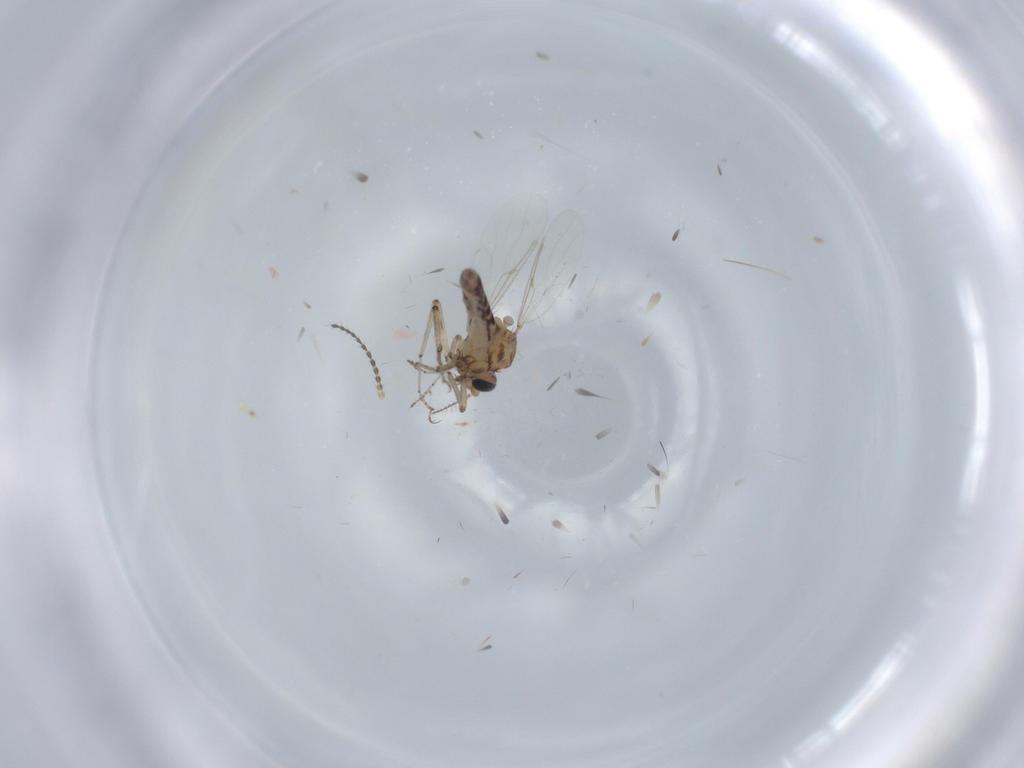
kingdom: Animalia
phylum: Arthropoda
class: Insecta
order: Diptera
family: Ceratopogonidae
